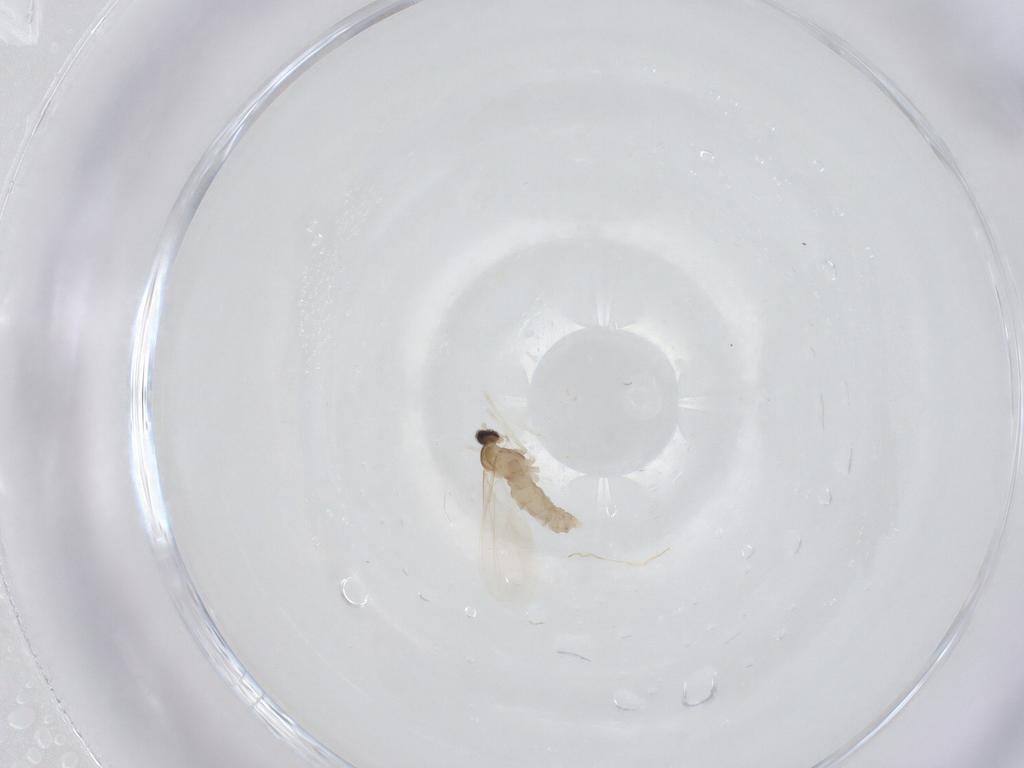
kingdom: Animalia
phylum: Arthropoda
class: Insecta
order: Diptera
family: Cecidomyiidae
